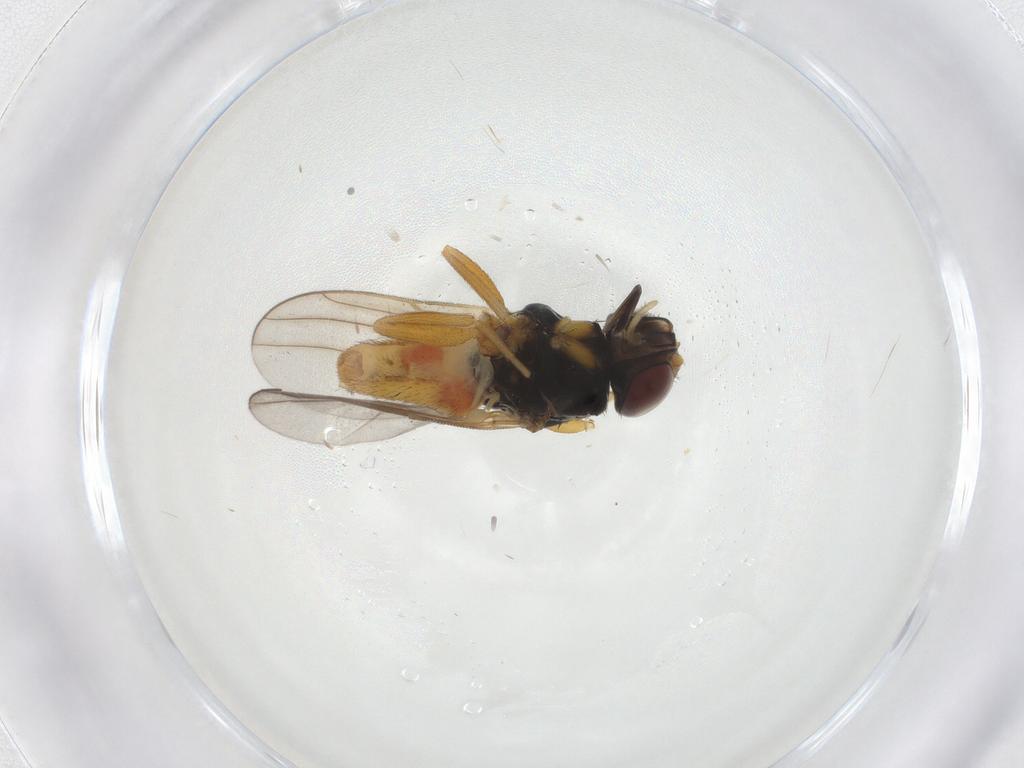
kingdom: Animalia
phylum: Arthropoda
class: Insecta
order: Diptera
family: Chloropidae
